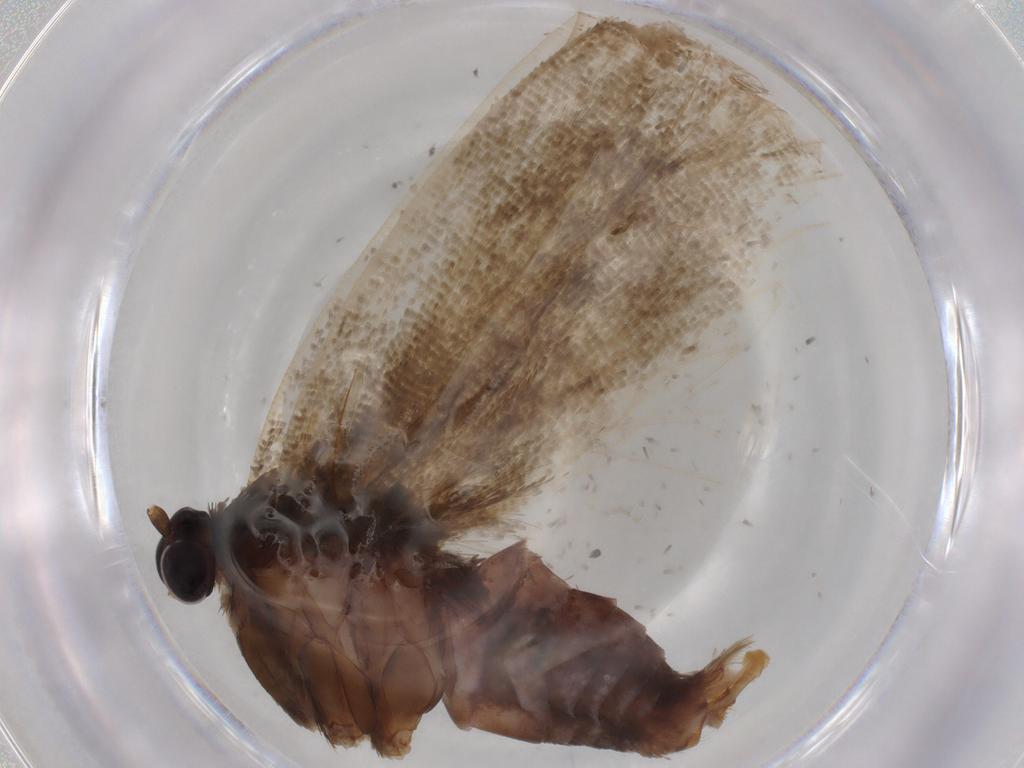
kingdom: Animalia
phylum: Arthropoda
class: Insecta
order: Lepidoptera
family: Tortricidae
